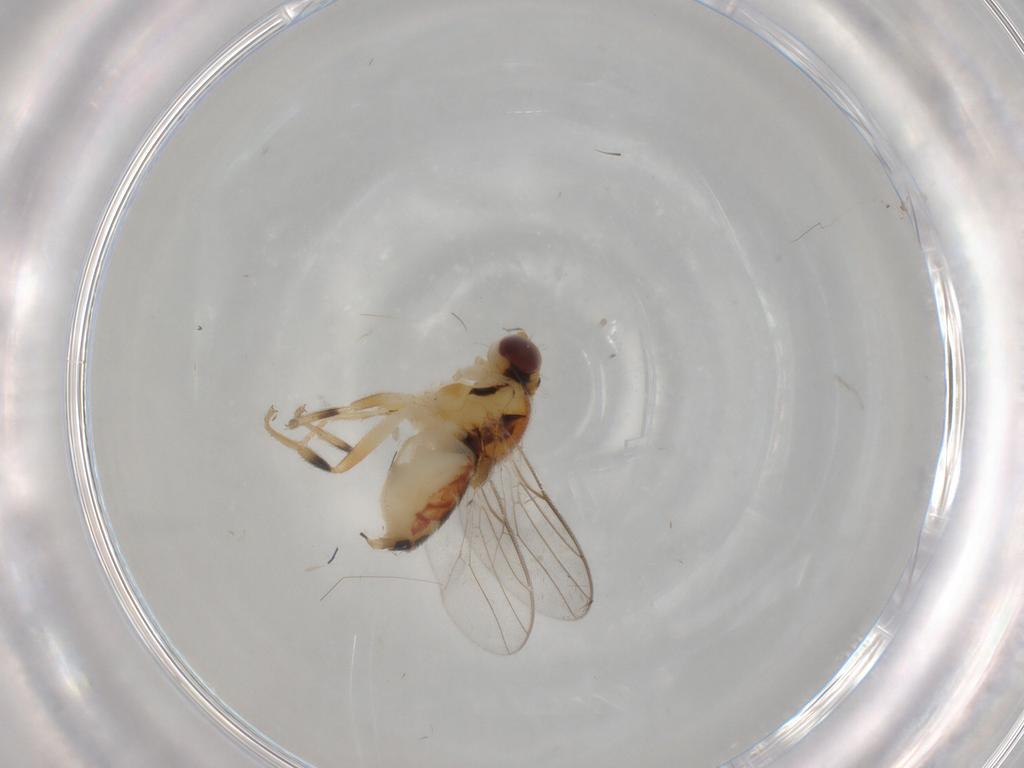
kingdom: Animalia
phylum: Arthropoda
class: Insecta
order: Diptera
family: Chloropidae
